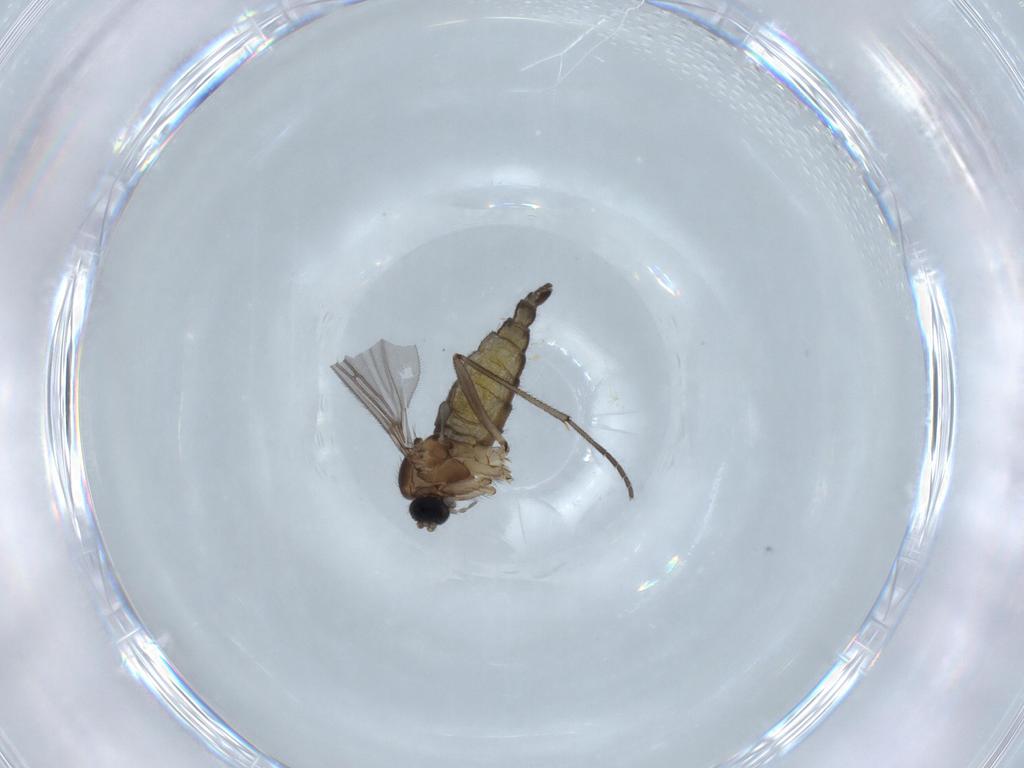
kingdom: Animalia
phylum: Arthropoda
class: Insecta
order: Diptera
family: Sciaridae
